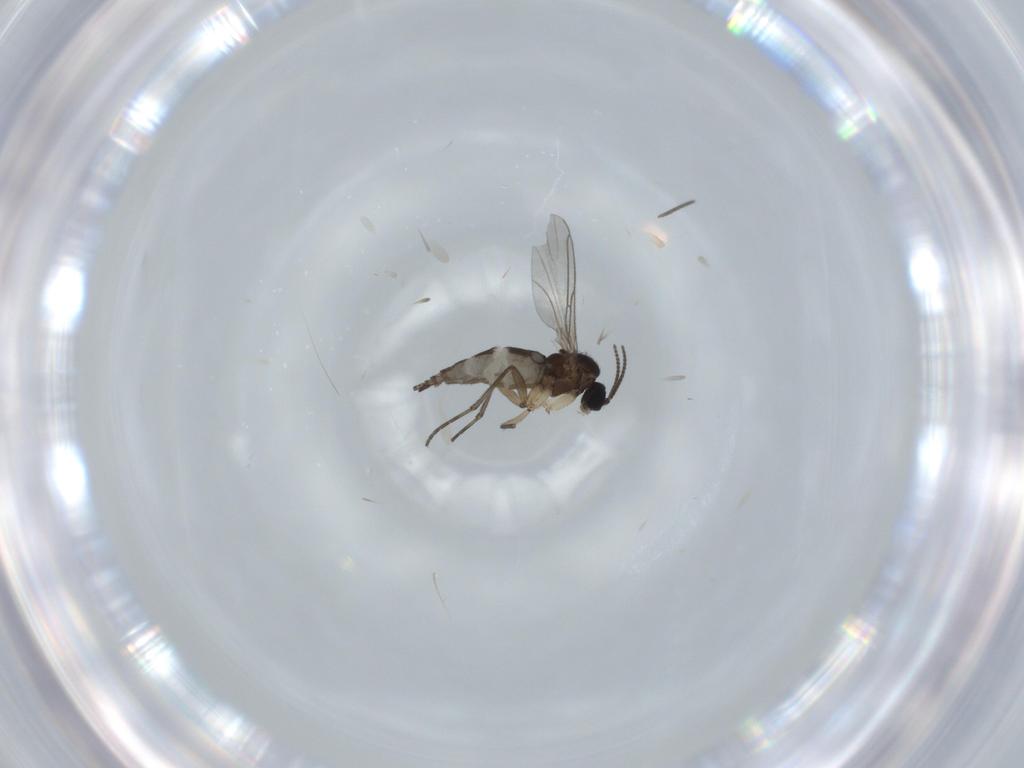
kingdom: Animalia
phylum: Arthropoda
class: Insecta
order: Diptera
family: Sciaridae
